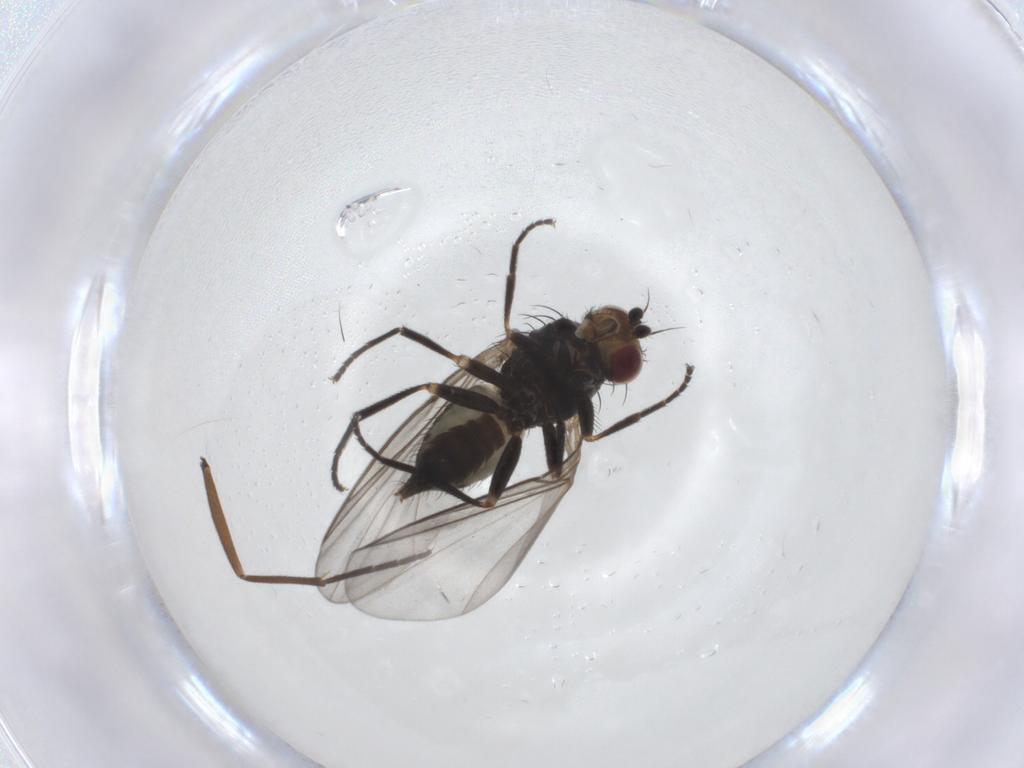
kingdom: Animalia
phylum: Arthropoda
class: Insecta
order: Diptera
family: Agromyzidae
